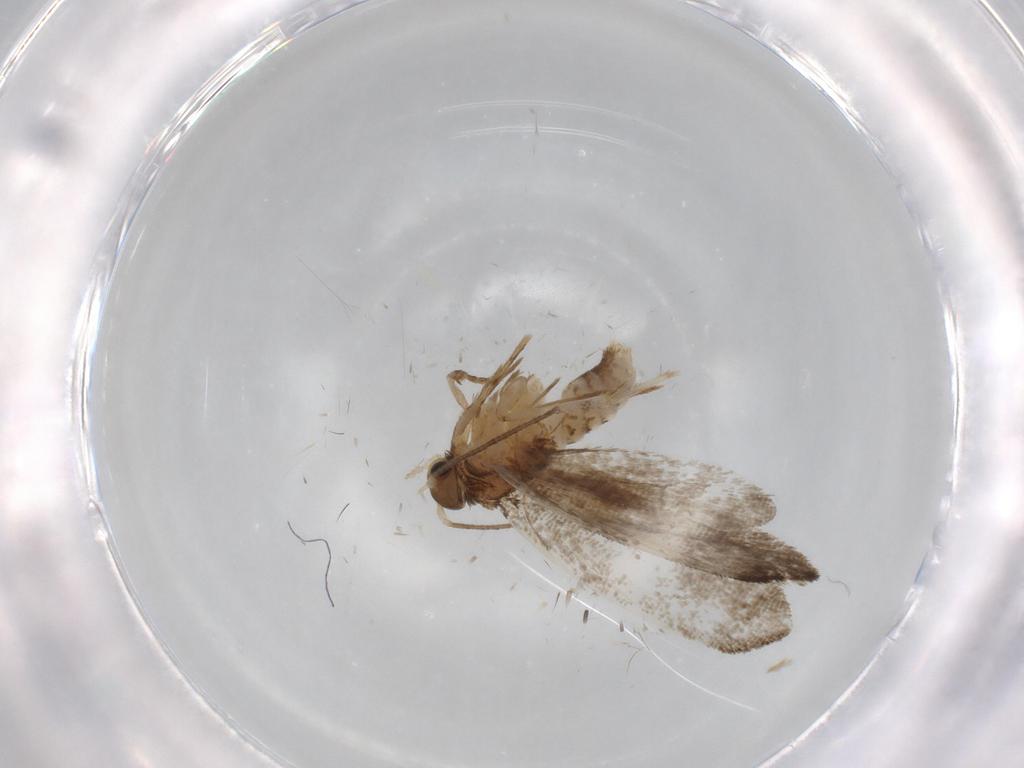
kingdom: Animalia
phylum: Arthropoda
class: Insecta
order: Lepidoptera
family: Tineidae
